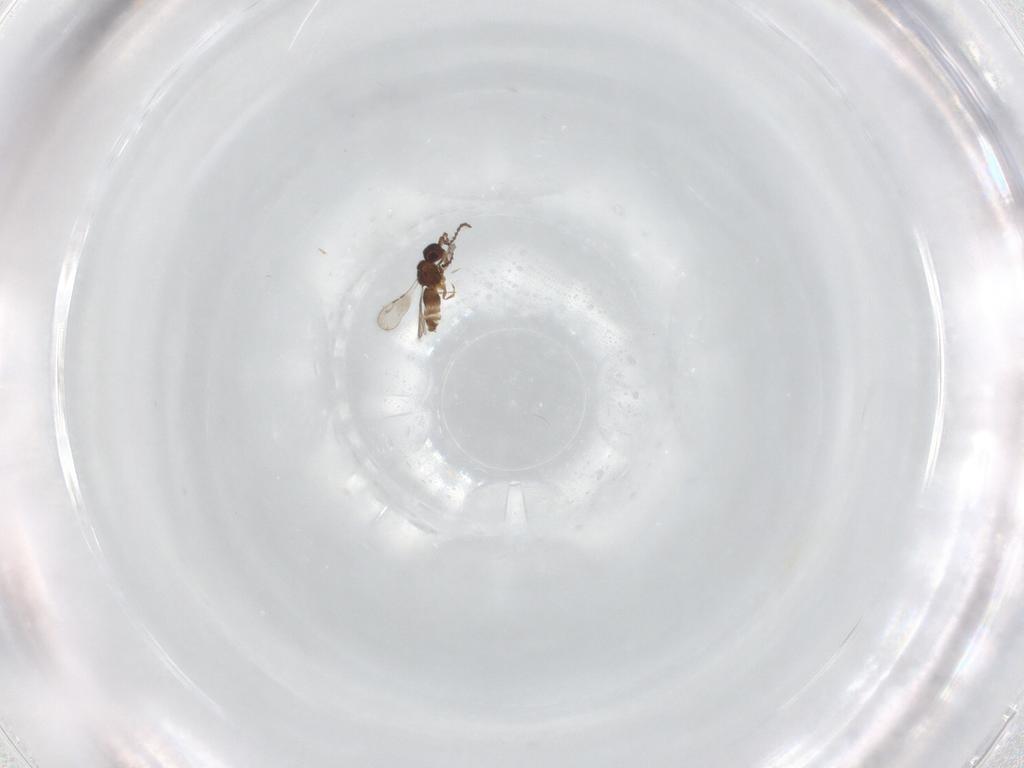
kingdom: Animalia
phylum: Arthropoda
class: Insecta
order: Hymenoptera
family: Ceraphronidae
